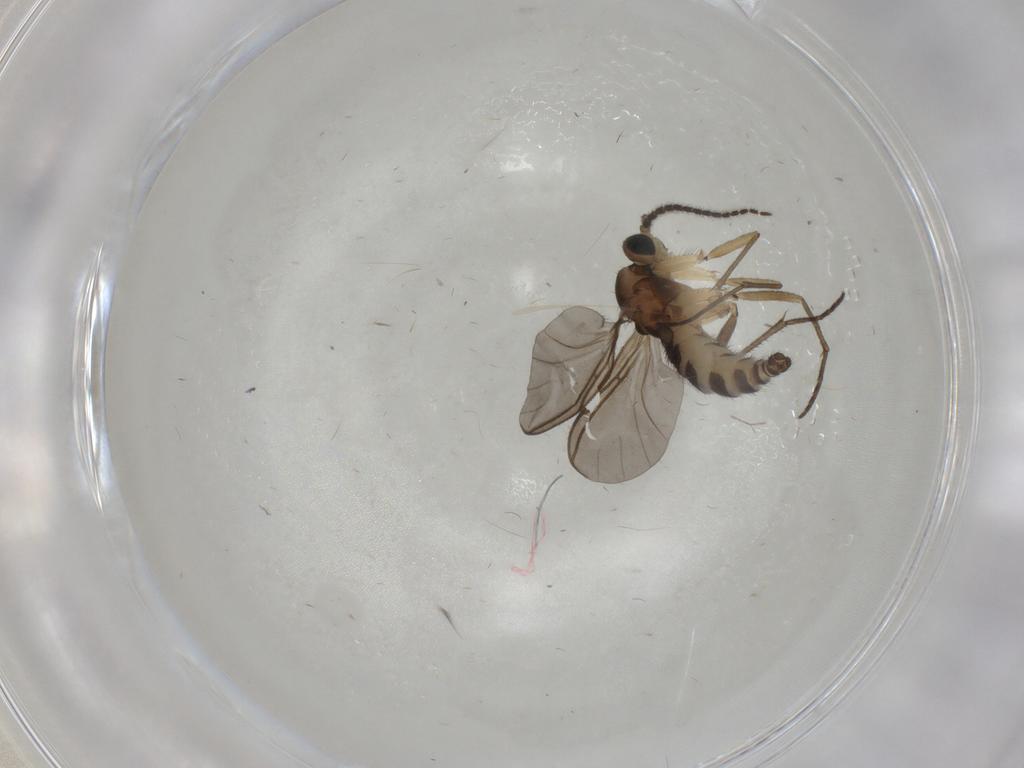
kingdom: Animalia
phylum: Arthropoda
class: Insecta
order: Diptera
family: Sciaridae
